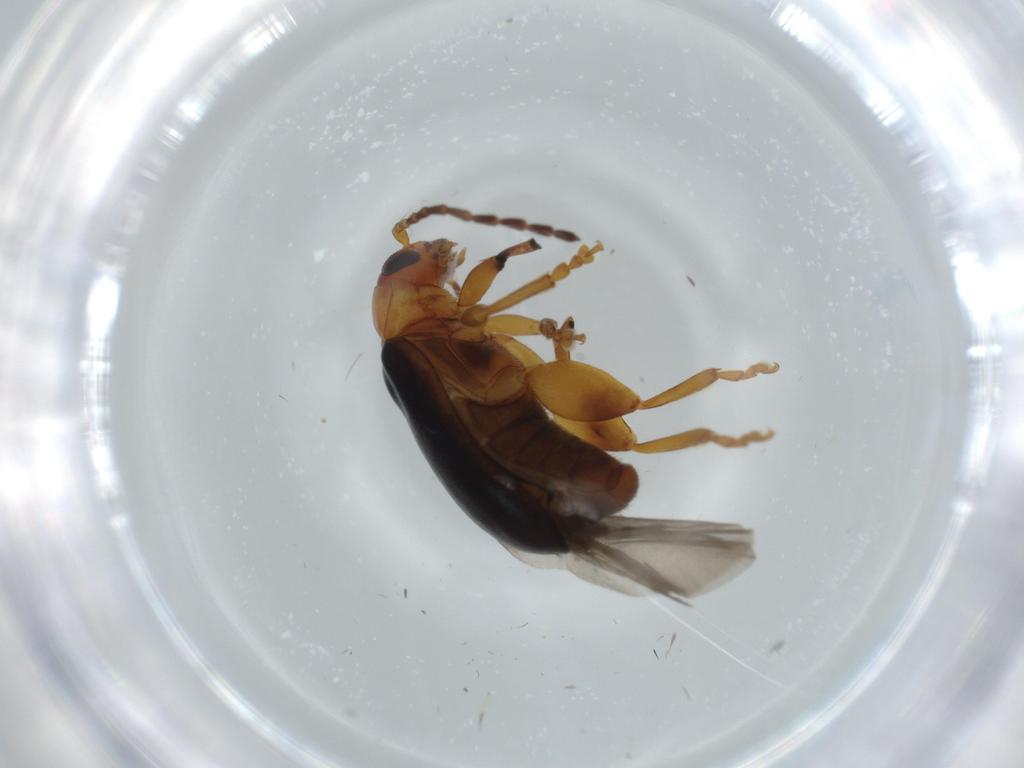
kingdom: Animalia
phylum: Arthropoda
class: Insecta
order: Coleoptera
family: Chrysomelidae
